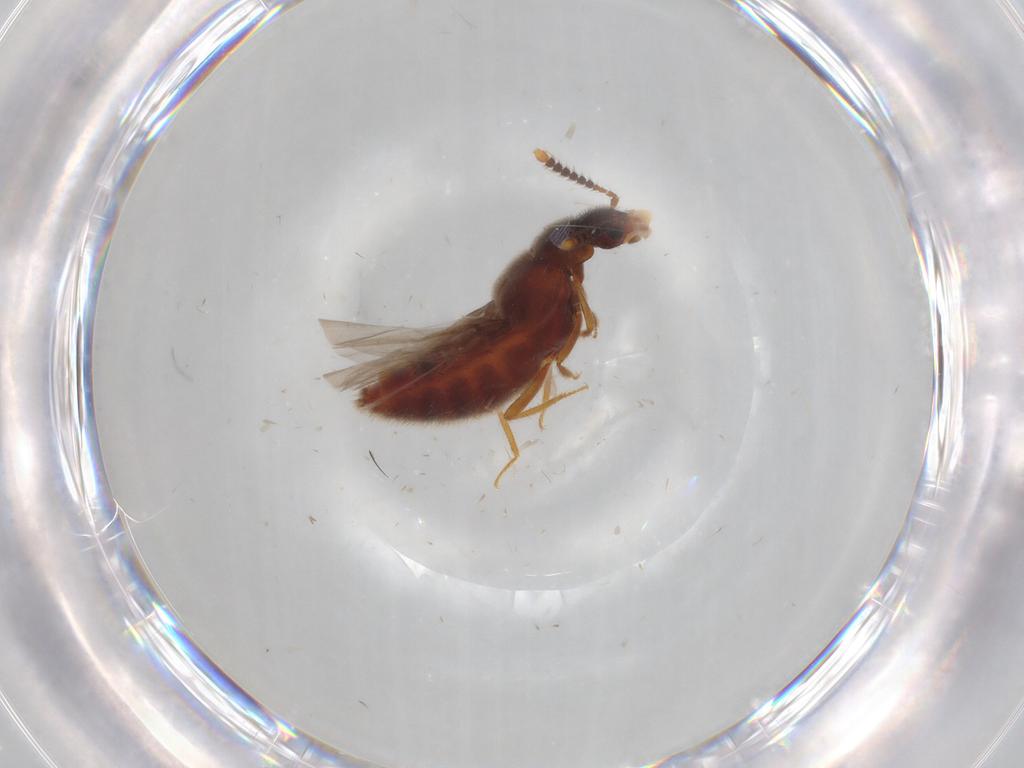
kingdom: Animalia
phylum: Arthropoda
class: Insecta
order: Coleoptera
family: Staphylinidae
